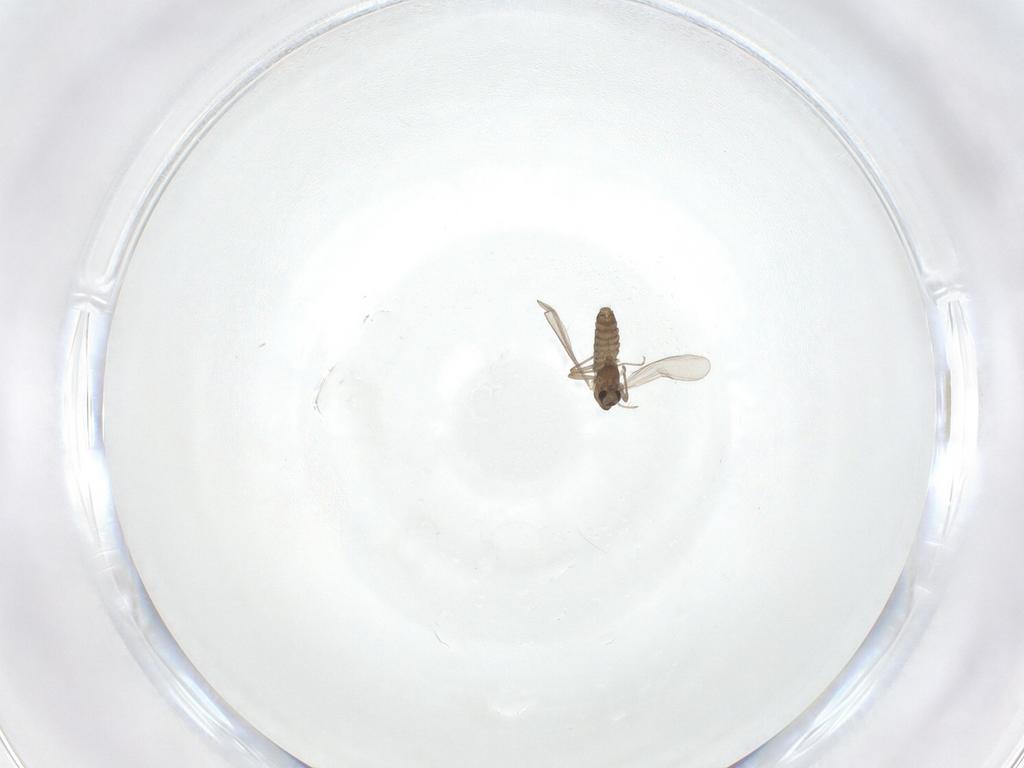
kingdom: Animalia
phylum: Arthropoda
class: Insecta
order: Diptera
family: Chironomidae
